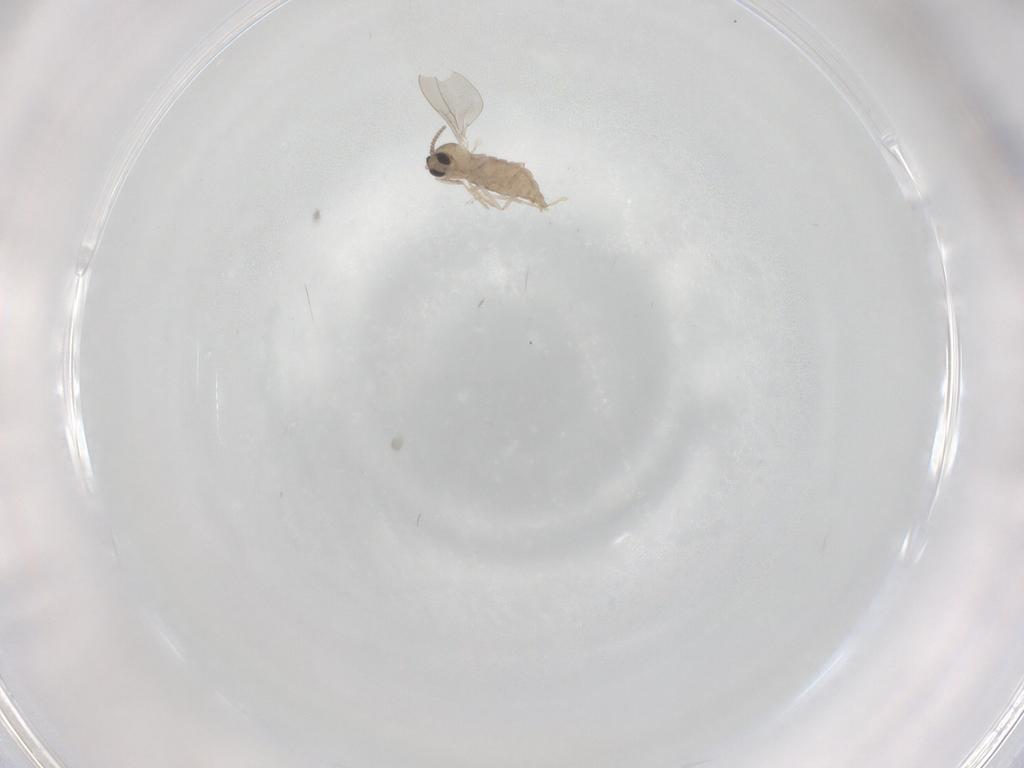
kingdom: Animalia
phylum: Arthropoda
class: Insecta
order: Diptera
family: Cecidomyiidae
